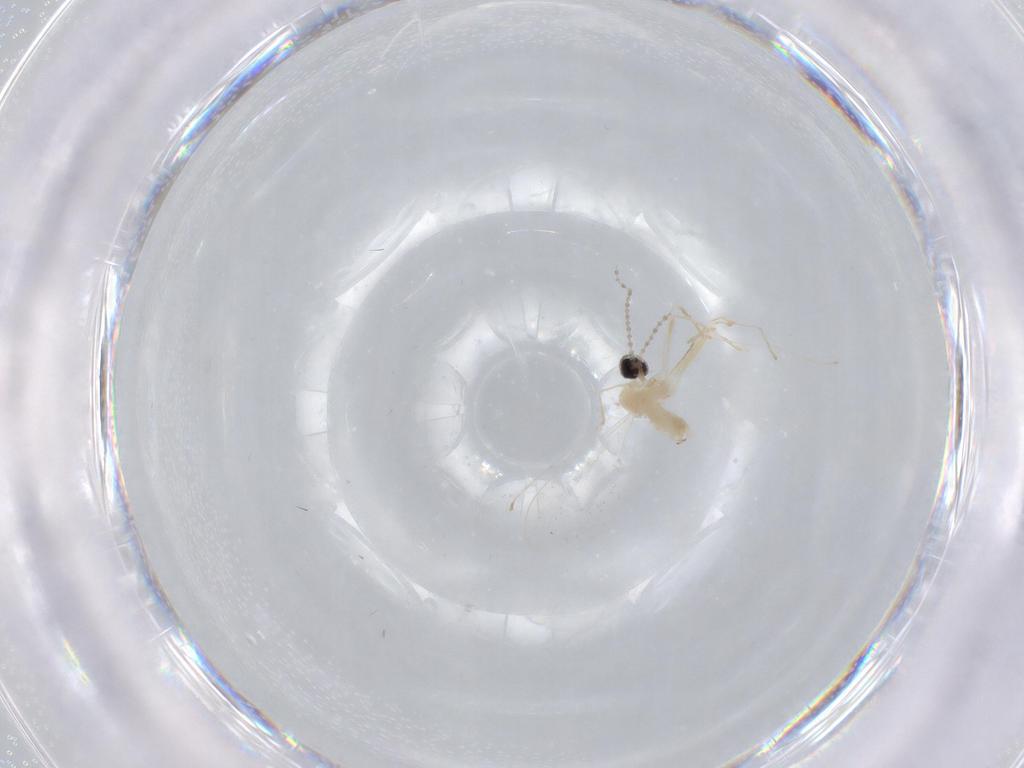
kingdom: Animalia
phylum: Arthropoda
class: Insecta
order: Diptera
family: Cecidomyiidae
